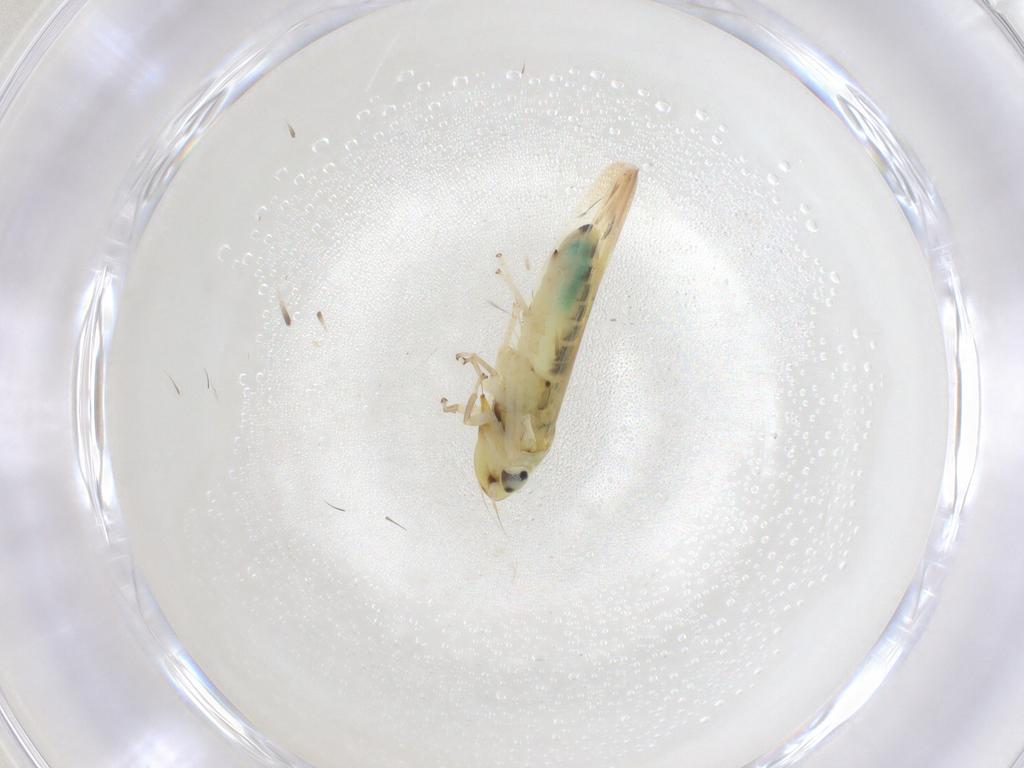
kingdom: Animalia
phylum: Arthropoda
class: Insecta
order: Hemiptera
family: Cicadellidae
